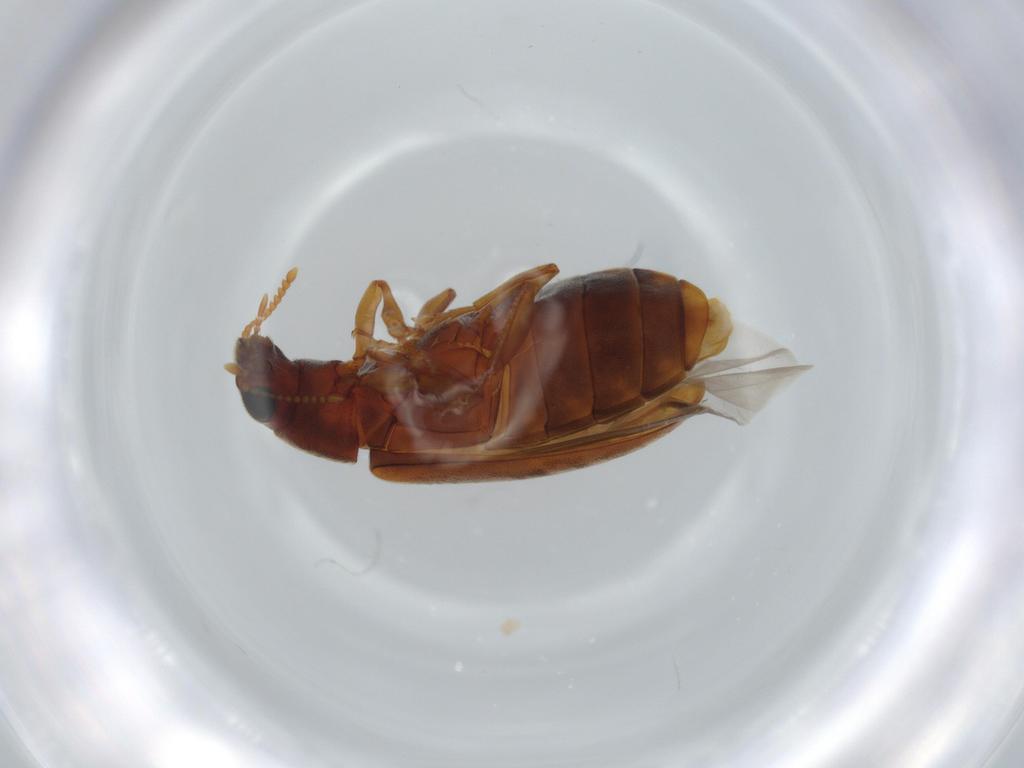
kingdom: Animalia
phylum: Arthropoda
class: Insecta
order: Coleoptera
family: Mycteridae
